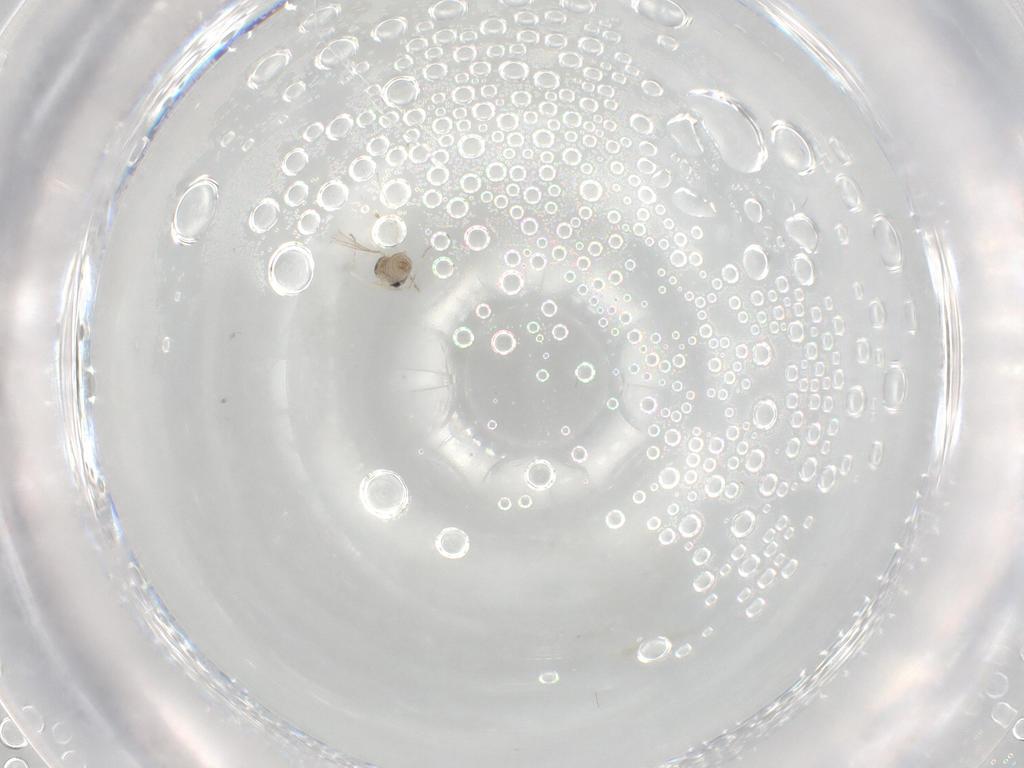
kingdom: Animalia
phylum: Arthropoda
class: Insecta
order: Diptera
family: Cecidomyiidae
